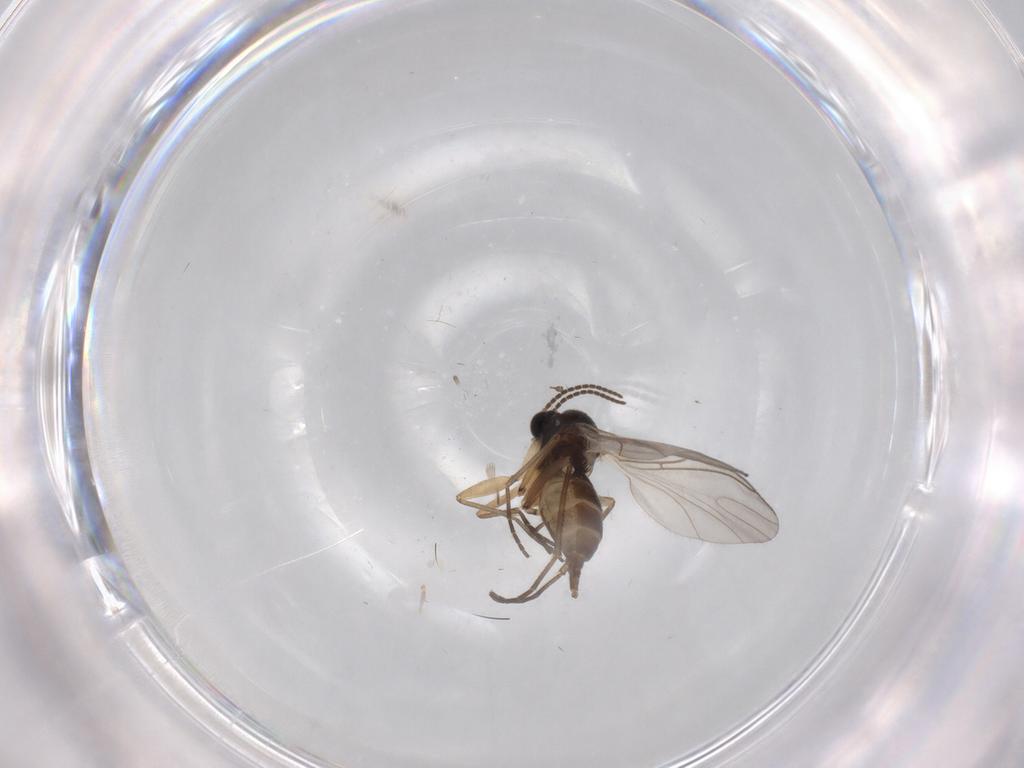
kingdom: Animalia
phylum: Arthropoda
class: Insecta
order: Diptera
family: Sciaridae
